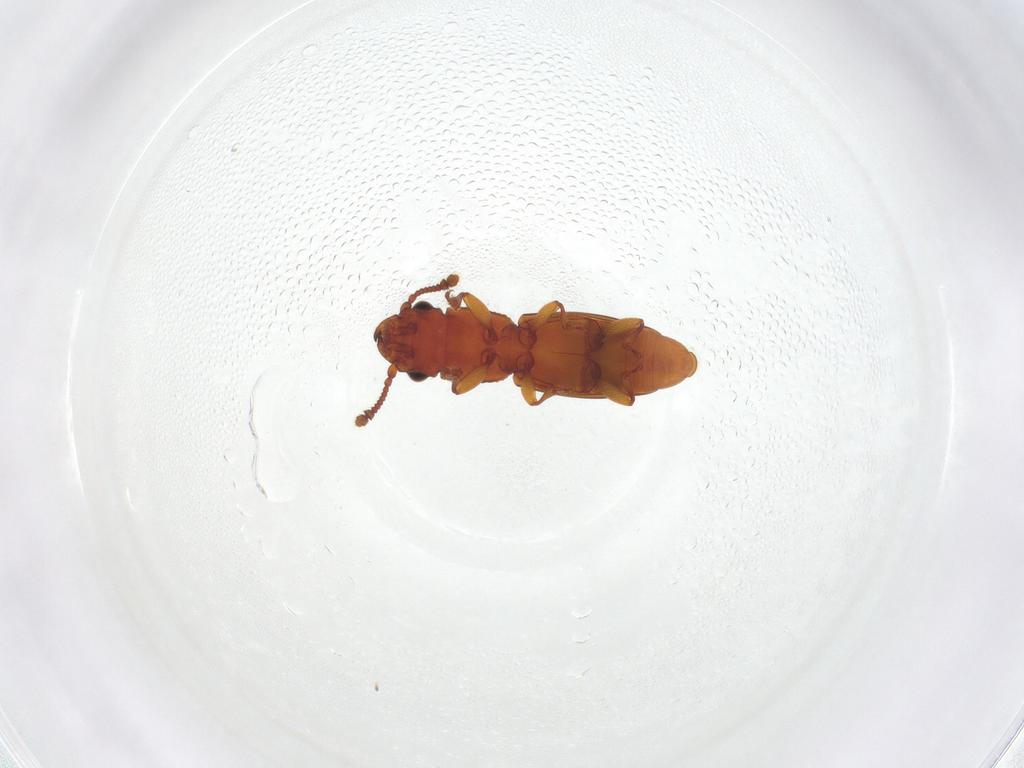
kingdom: Animalia
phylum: Arthropoda
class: Insecta
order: Coleoptera
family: Monotomidae
